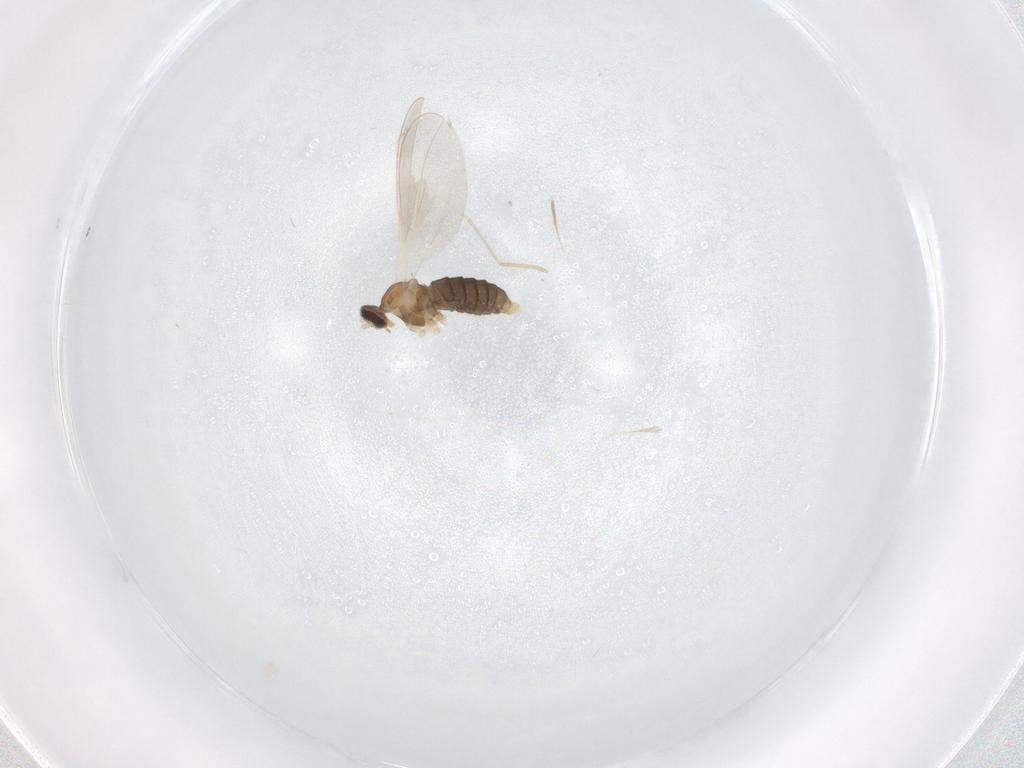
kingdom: Animalia
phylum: Arthropoda
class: Insecta
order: Diptera
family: Cecidomyiidae
